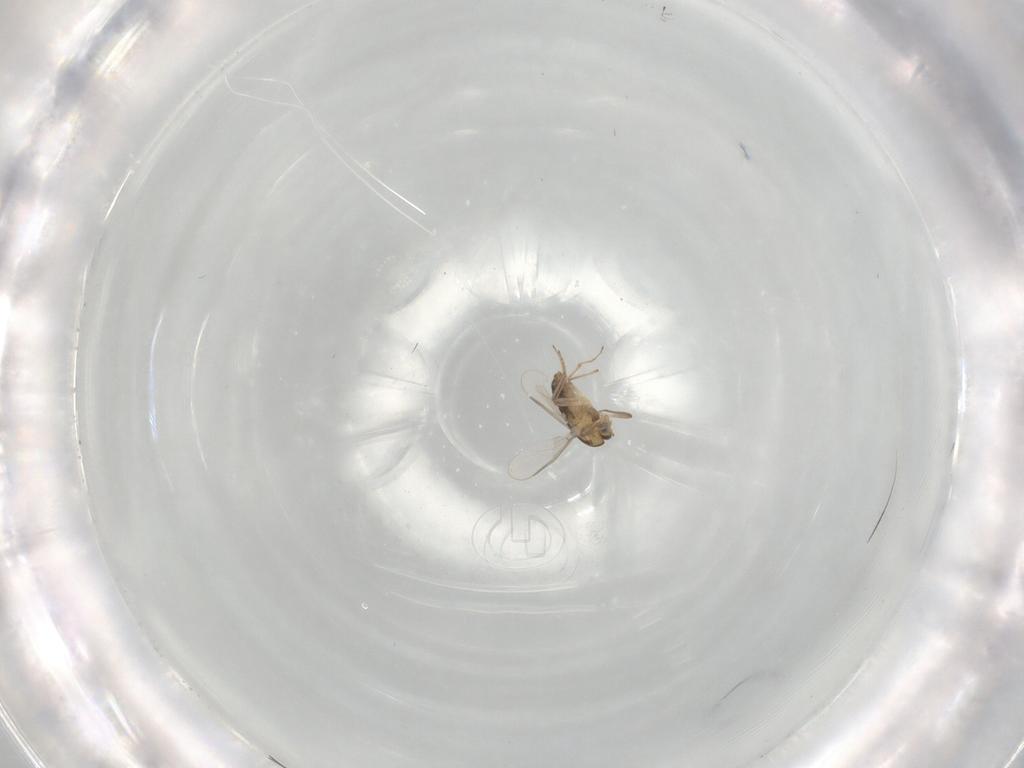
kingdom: Animalia
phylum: Arthropoda
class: Insecta
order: Diptera
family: Chironomidae
